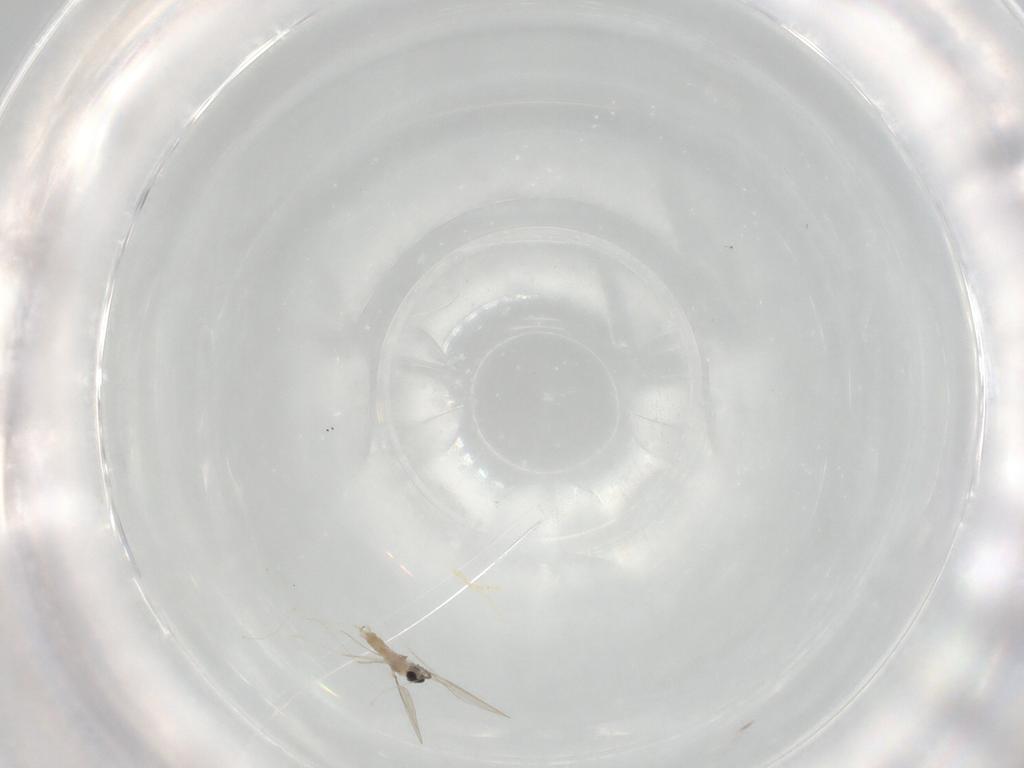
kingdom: Animalia
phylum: Arthropoda
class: Insecta
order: Diptera
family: Cecidomyiidae
